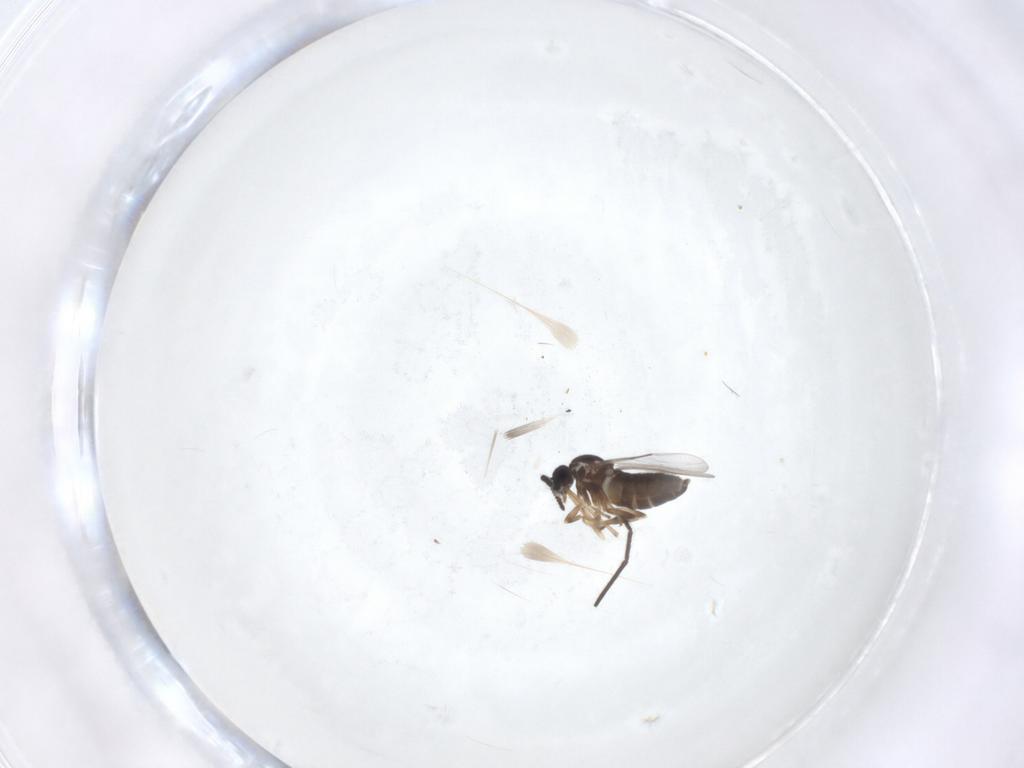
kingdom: Animalia
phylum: Arthropoda
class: Insecta
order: Diptera
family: Scatopsidae
